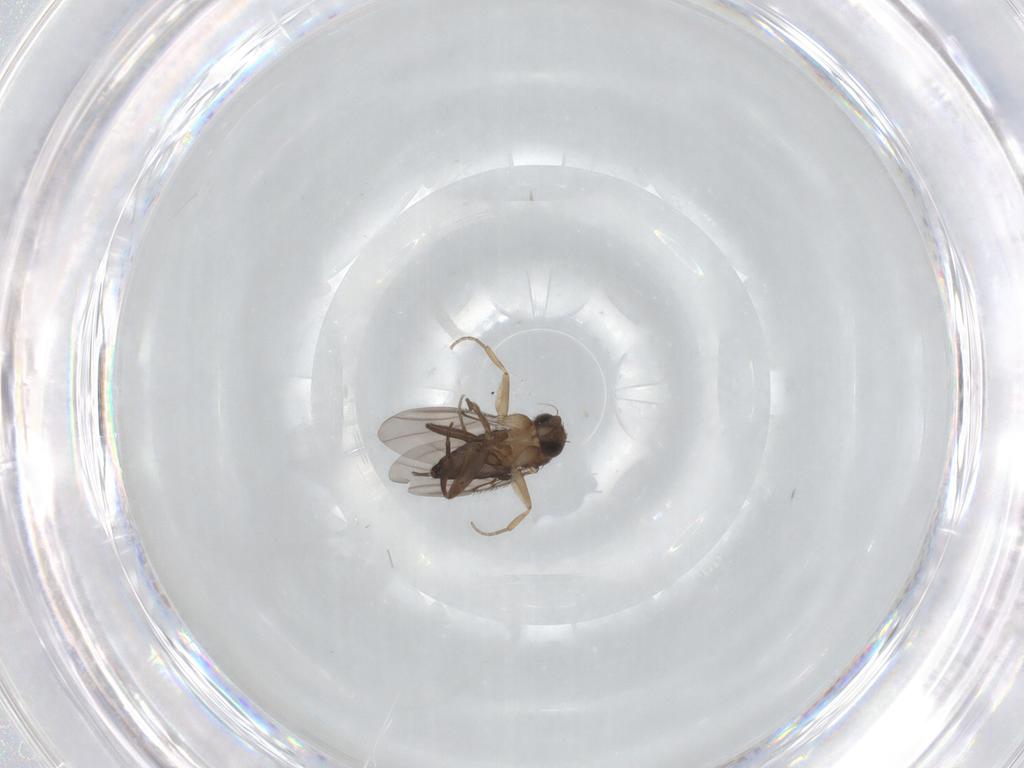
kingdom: Animalia
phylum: Arthropoda
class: Insecta
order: Diptera
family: Phoridae
